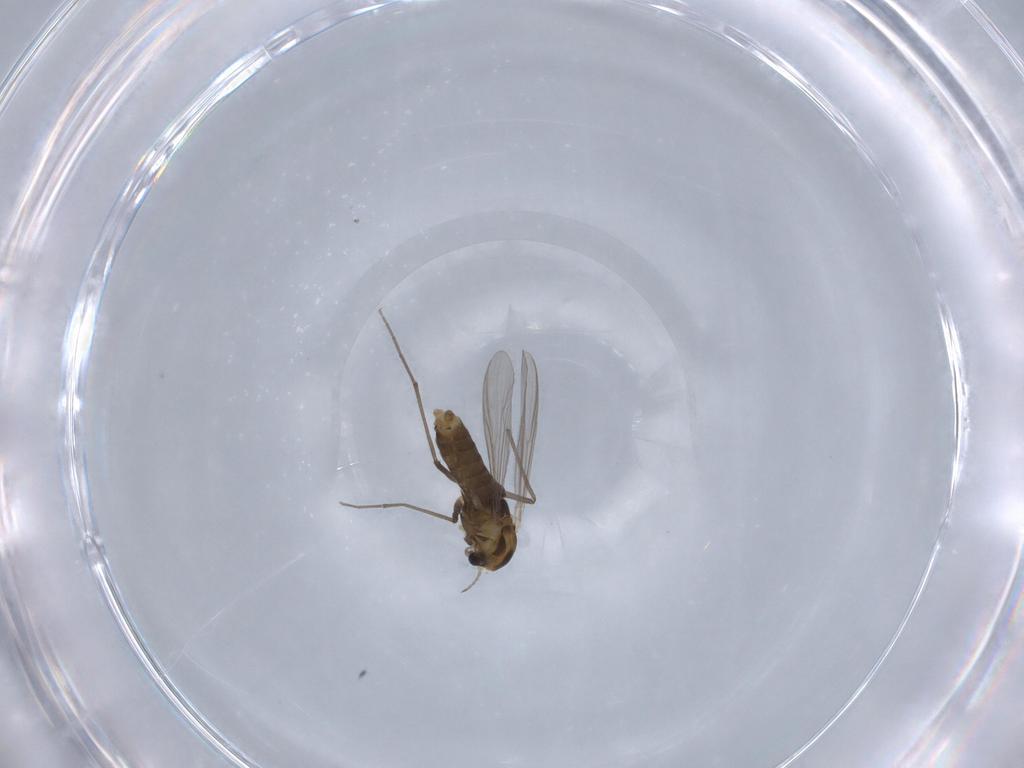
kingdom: Animalia
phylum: Arthropoda
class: Insecta
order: Diptera
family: Chironomidae
